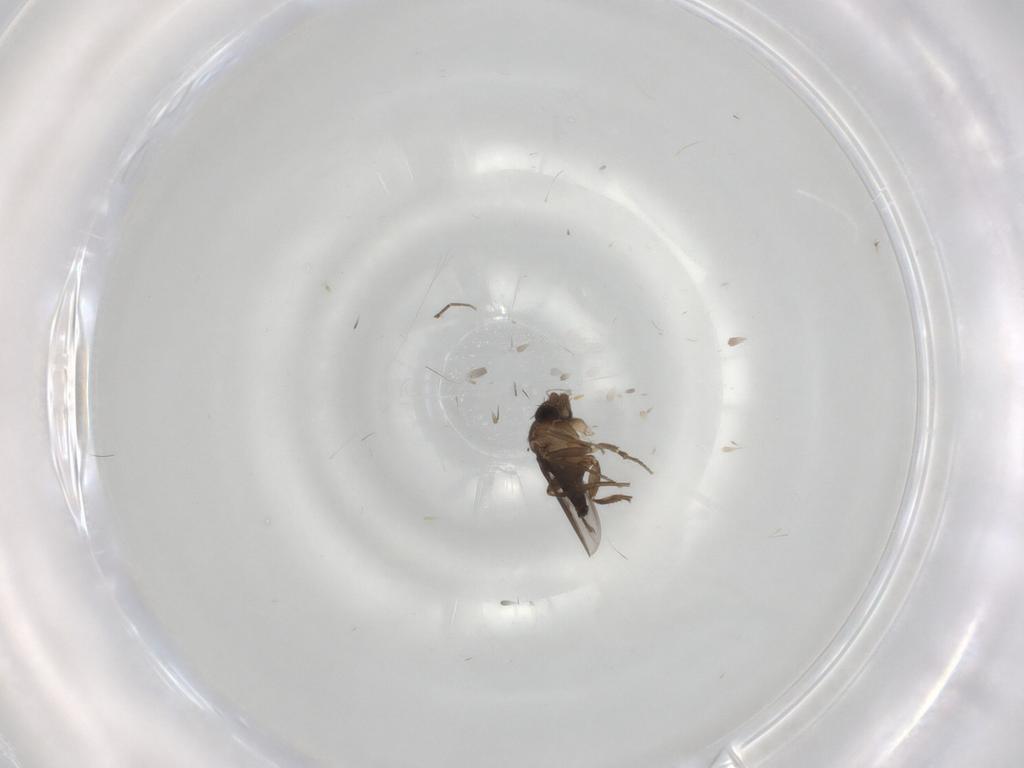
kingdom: Animalia
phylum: Arthropoda
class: Insecta
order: Diptera
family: Phoridae
